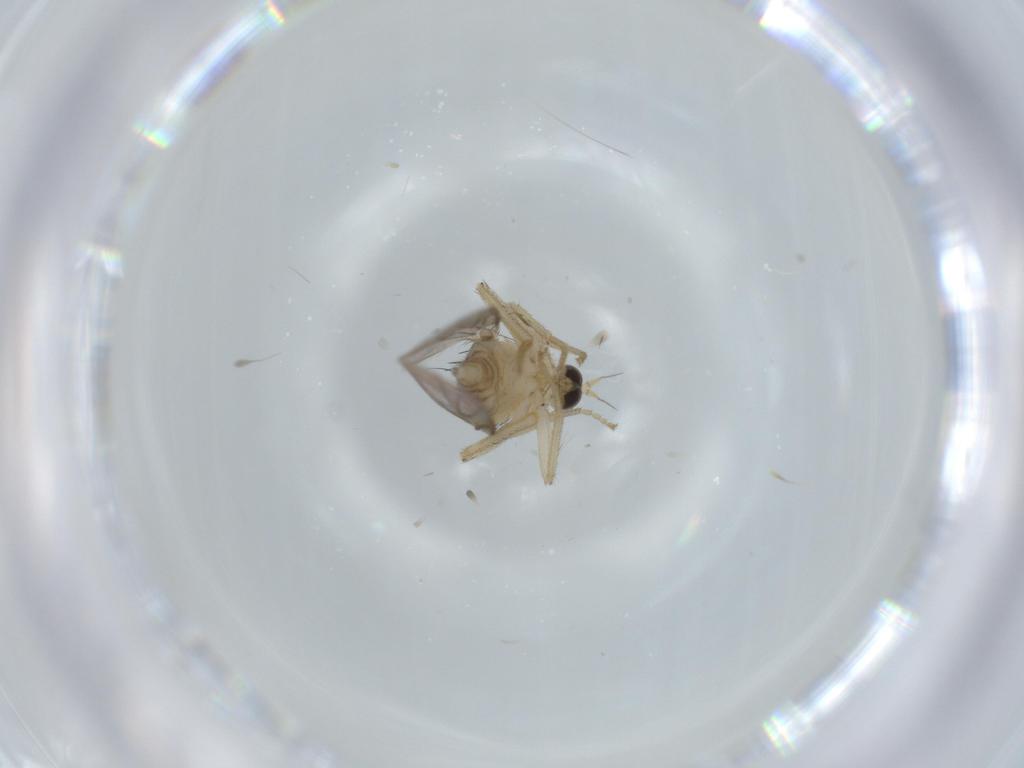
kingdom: Animalia
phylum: Arthropoda
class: Insecta
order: Diptera
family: Hybotidae
